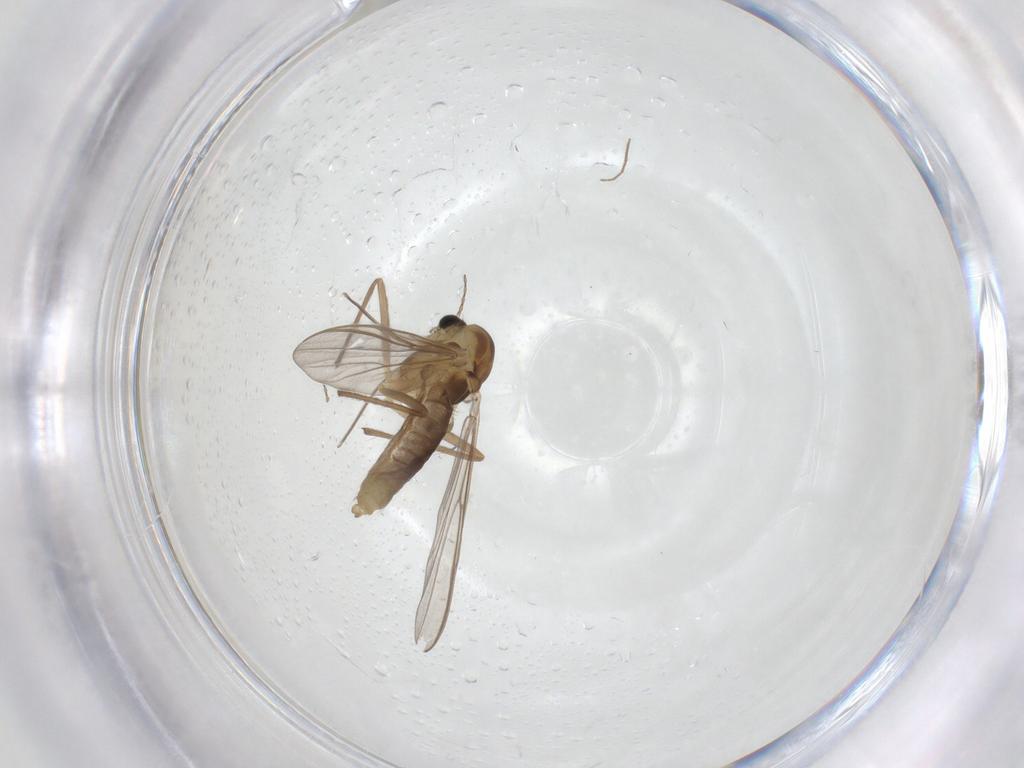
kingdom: Animalia
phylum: Arthropoda
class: Insecta
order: Diptera
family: Chironomidae
